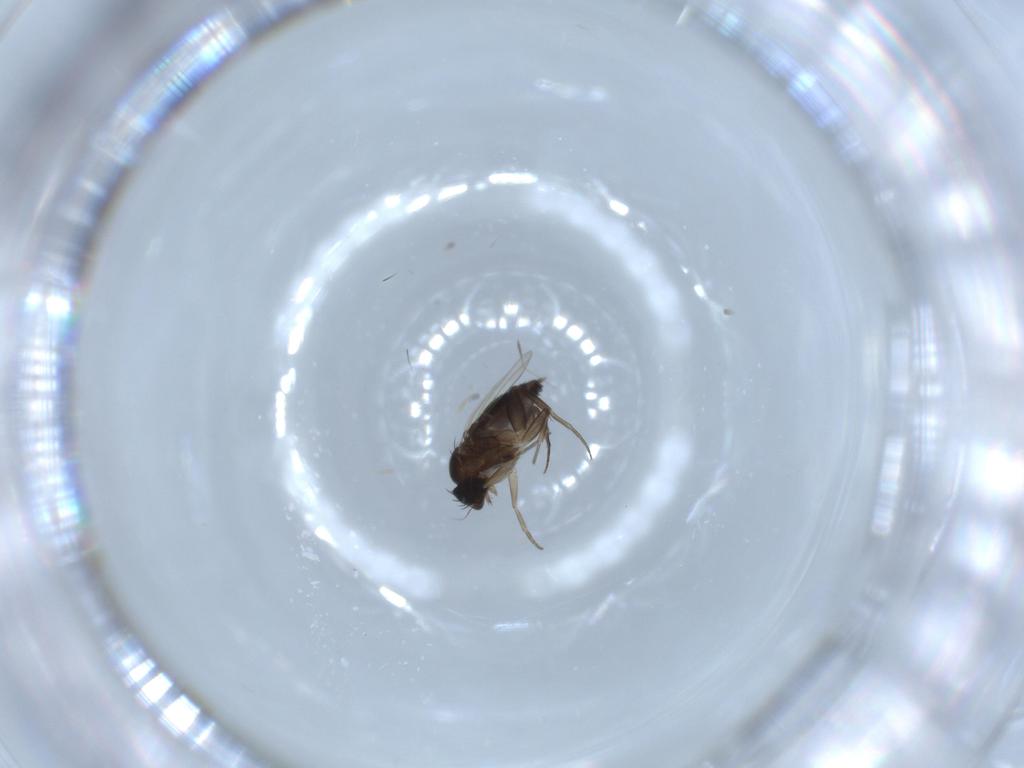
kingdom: Animalia
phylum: Arthropoda
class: Insecta
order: Diptera
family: Phoridae
